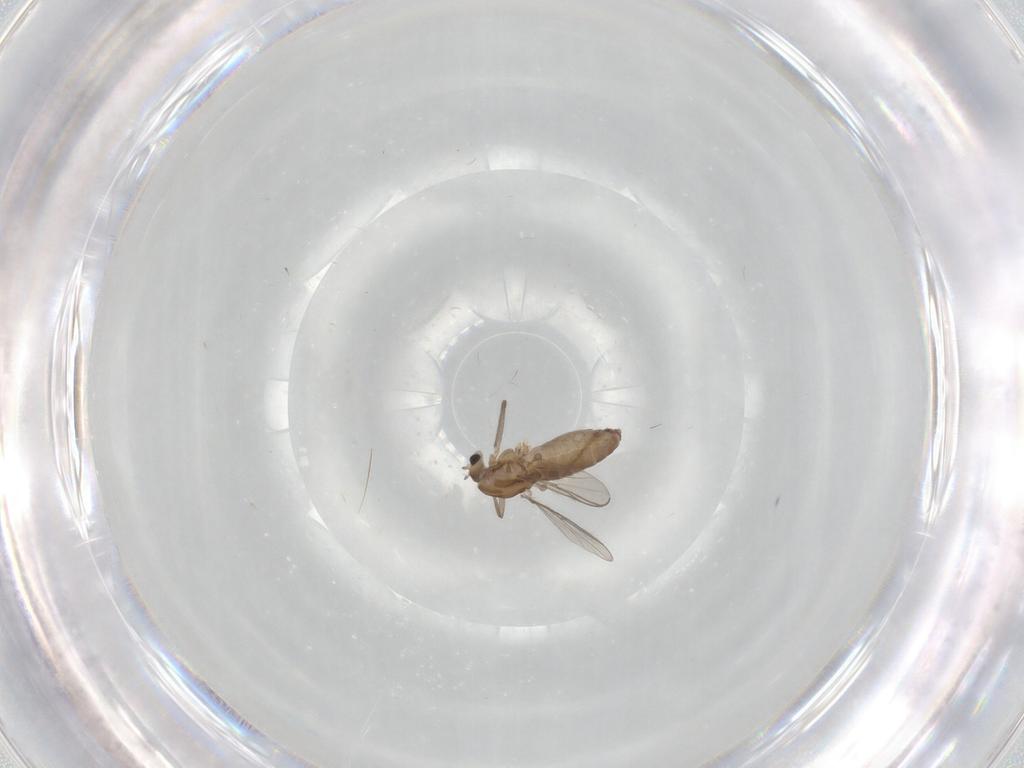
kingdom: Animalia
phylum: Arthropoda
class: Insecta
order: Diptera
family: Chironomidae
